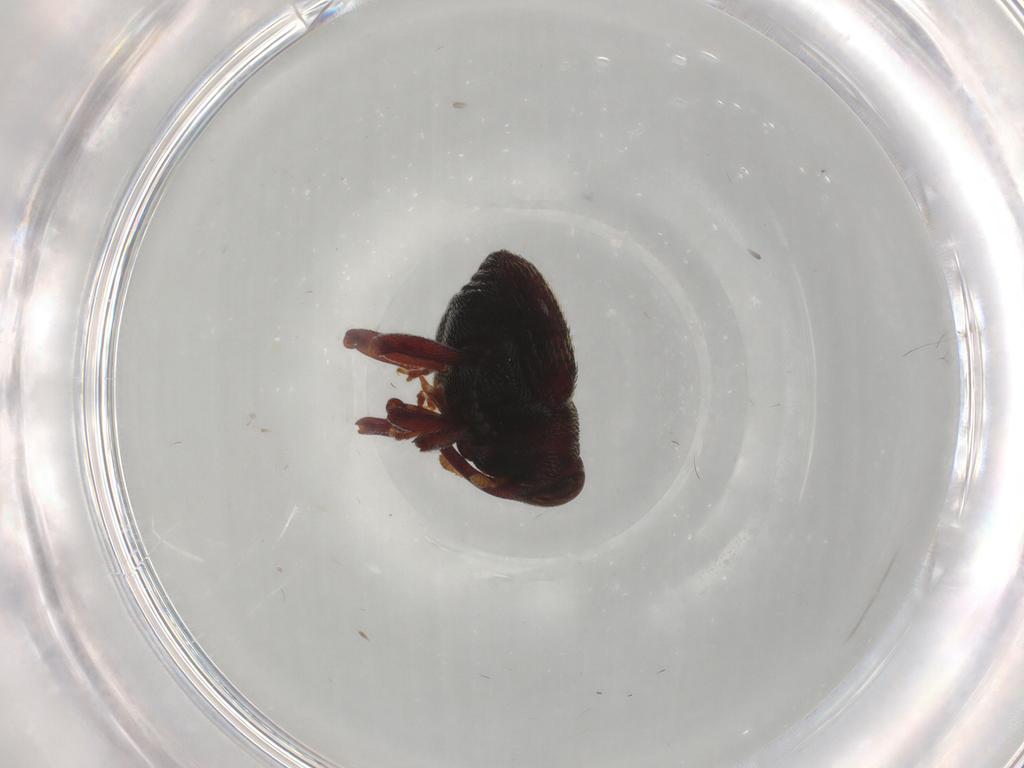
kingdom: Animalia
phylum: Arthropoda
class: Insecta
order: Coleoptera
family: Curculionidae
